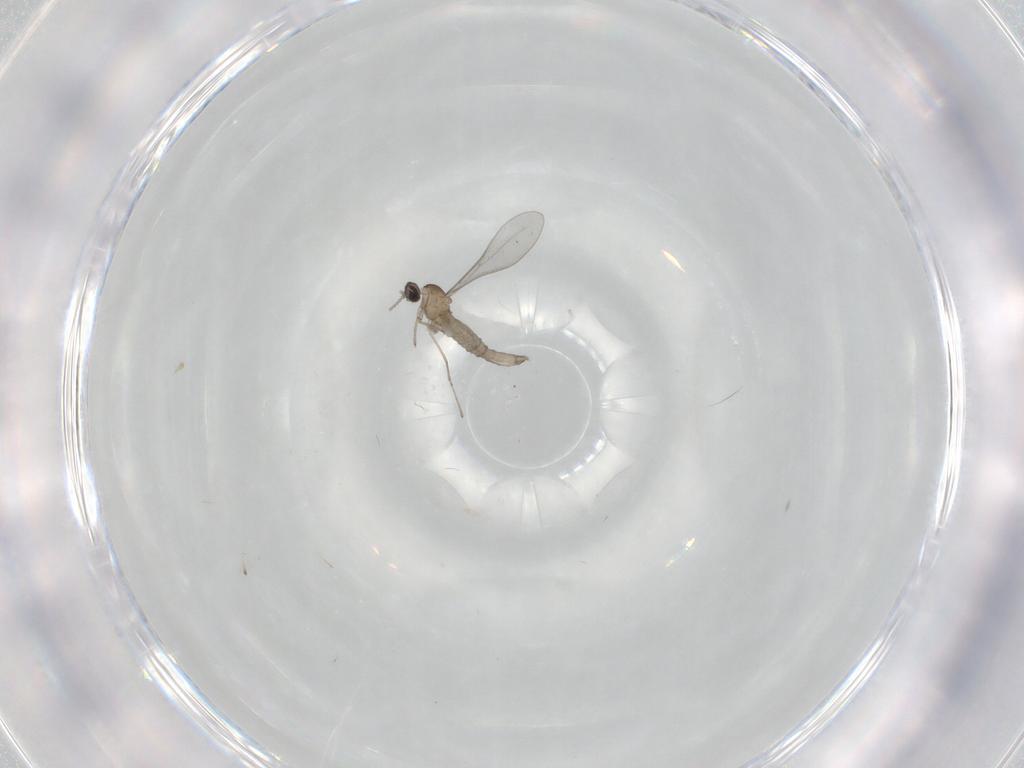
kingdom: Animalia
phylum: Arthropoda
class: Insecta
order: Diptera
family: Cecidomyiidae
